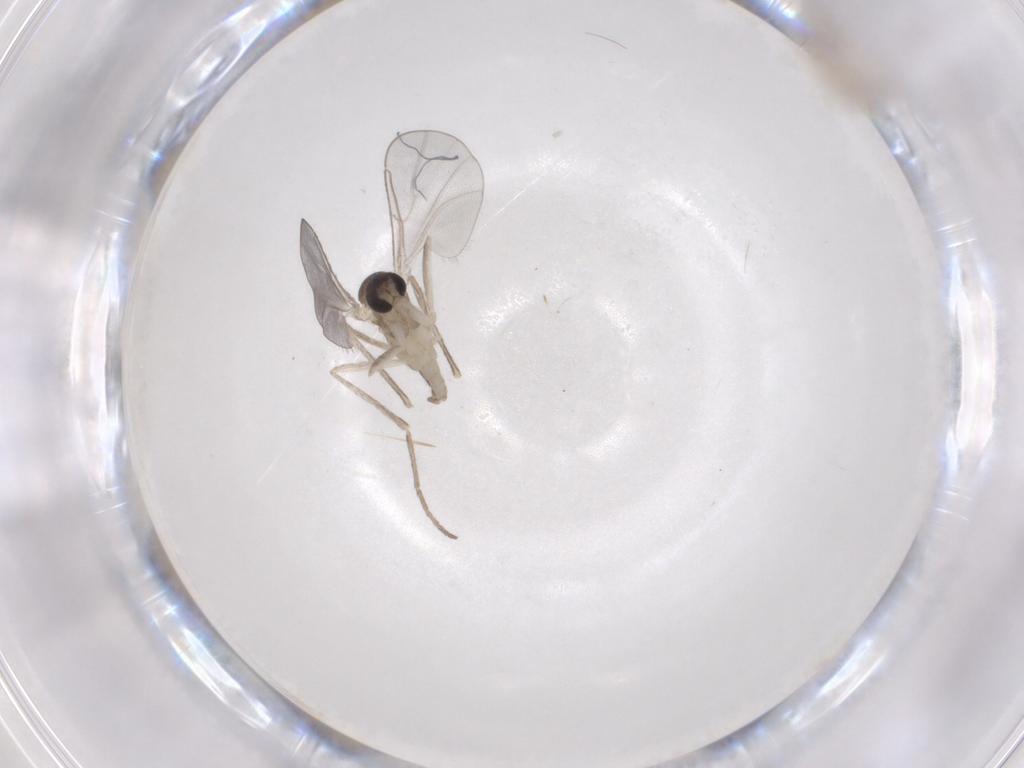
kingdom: Animalia
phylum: Arthropoda
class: Insecta
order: Diptera
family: Chironomidae
